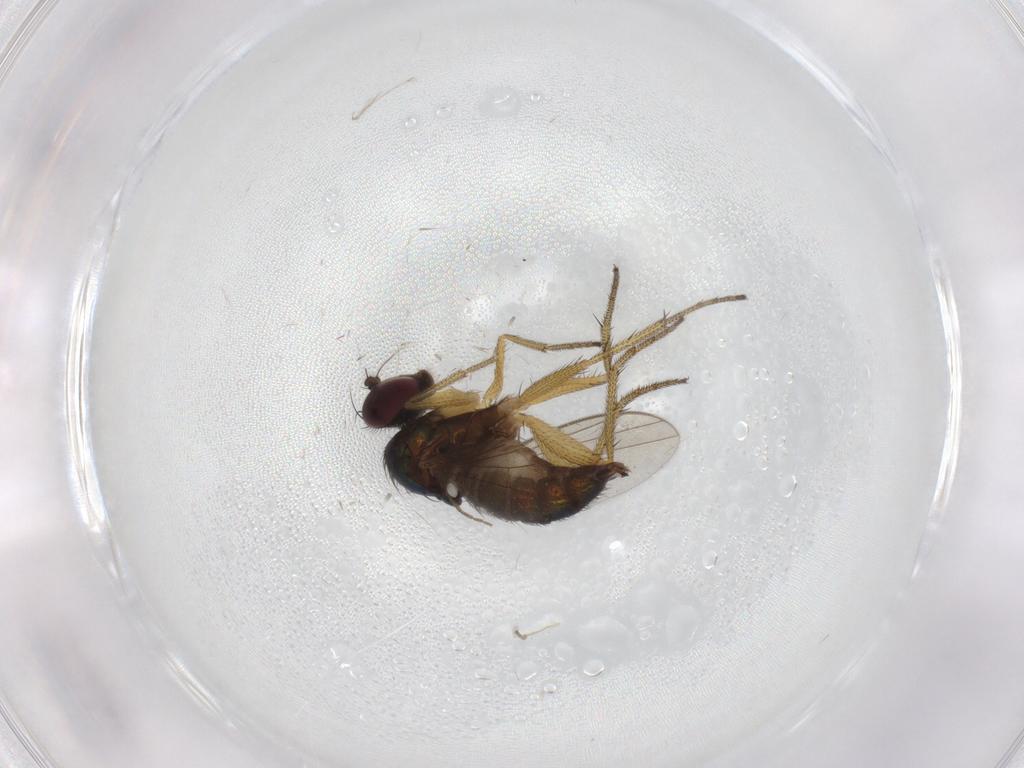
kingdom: Animalia
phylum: Arthropoda
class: Insecta
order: Diptera
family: Dolichopodidae
